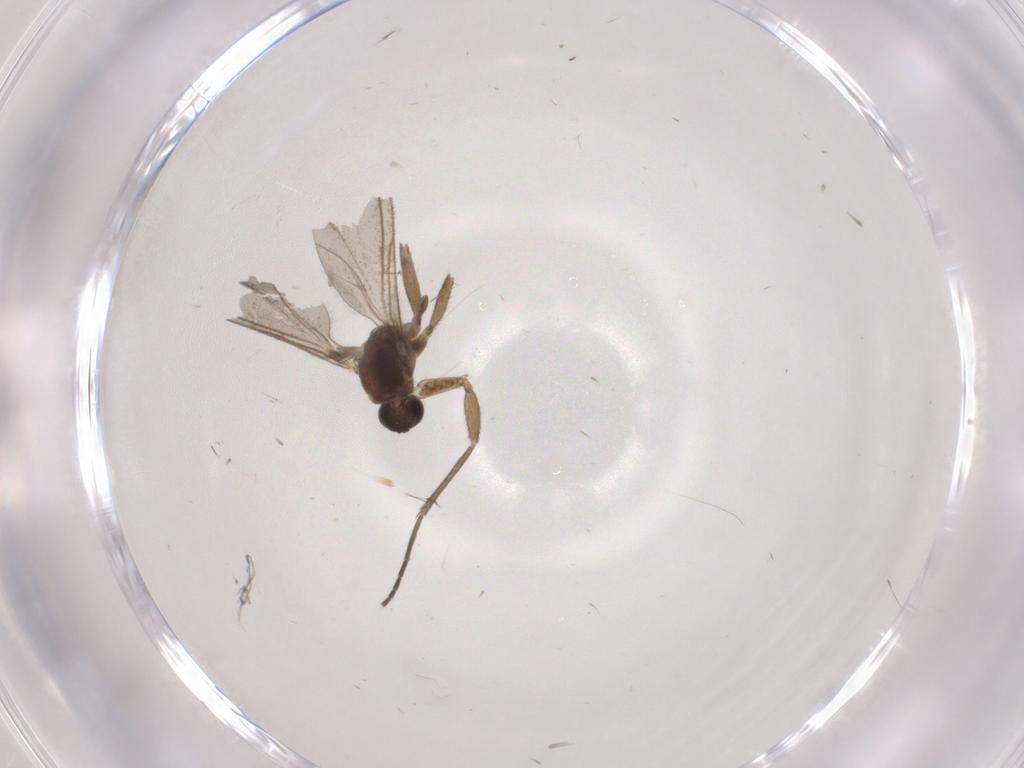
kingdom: Animalia
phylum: Arthropoda
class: Insecta
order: Diptera
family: Sciaridae
